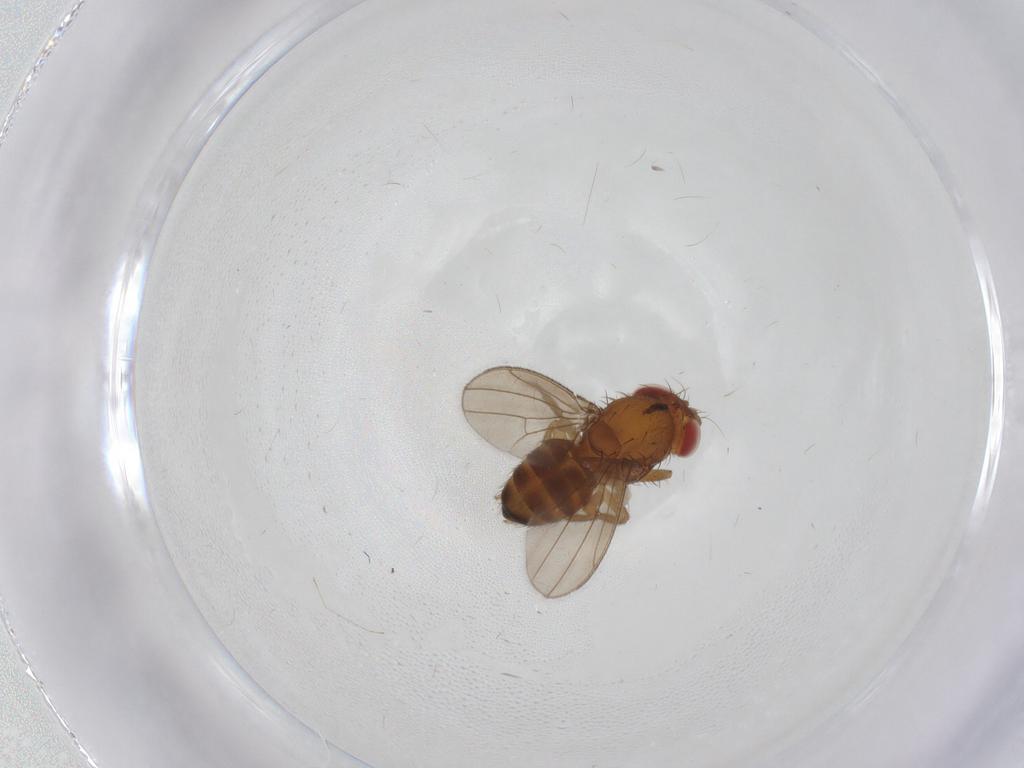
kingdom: Animalia
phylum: Arthropoda
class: Insecta
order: Diptera
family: Drosophilidae
